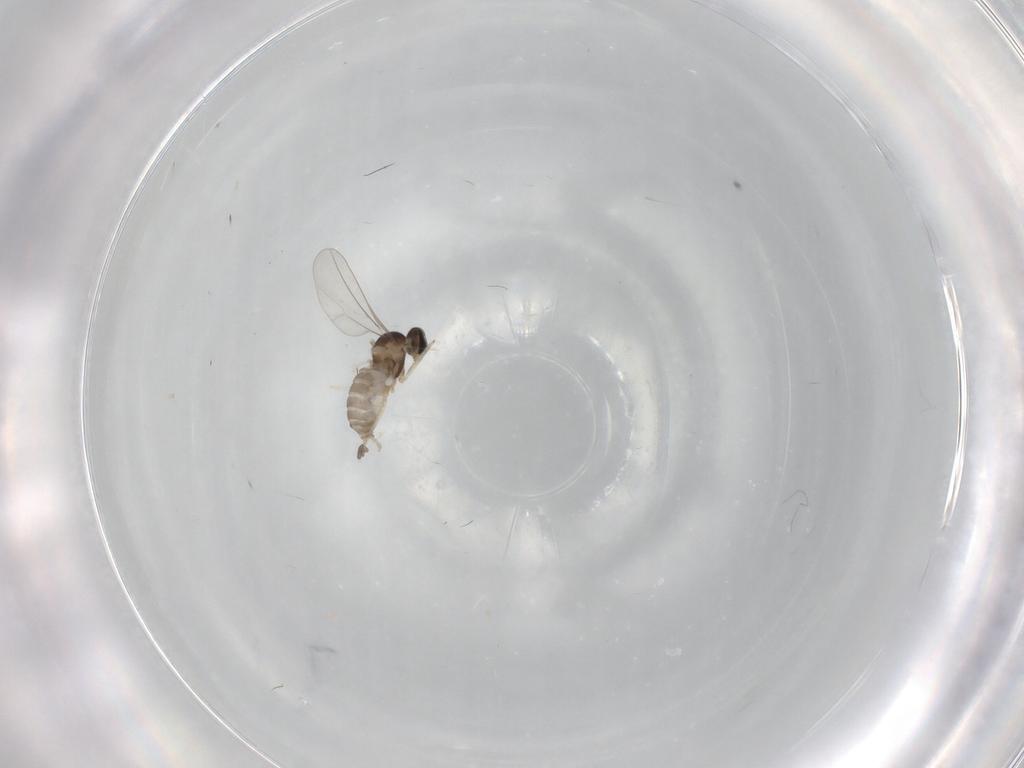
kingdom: Animalia
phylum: Arthropoda
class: Insecta
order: Diptera
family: Cecidomyiidae
